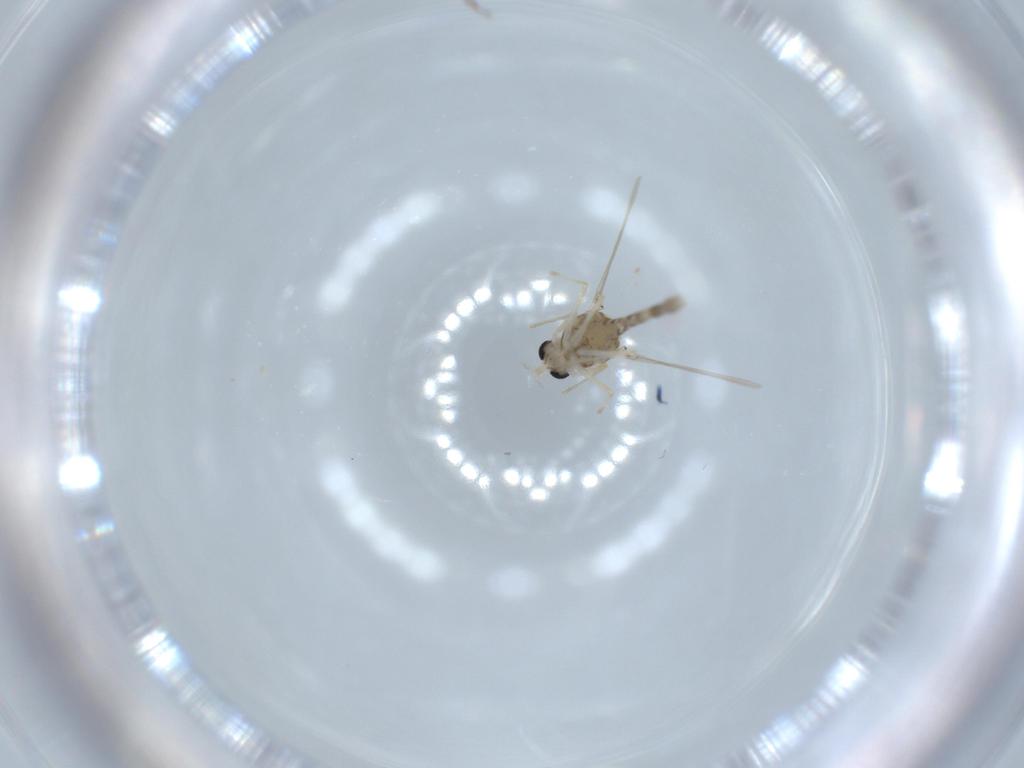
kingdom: Animalia
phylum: Arthropoda
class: Insecta
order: Diptera
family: Chironomidae
